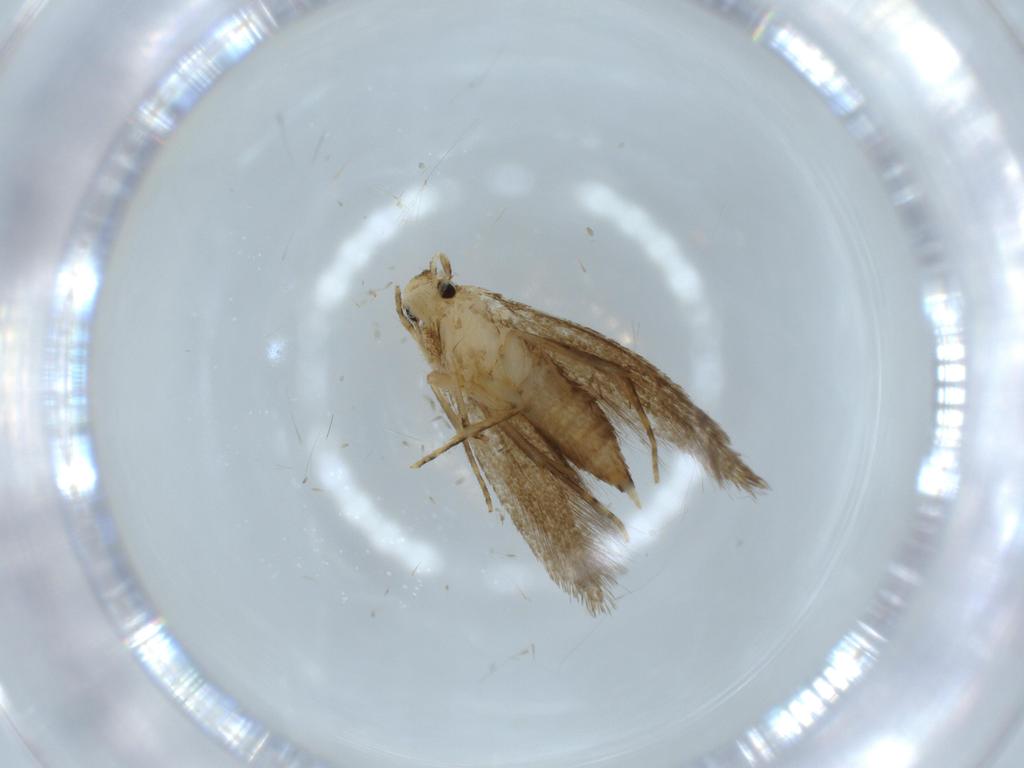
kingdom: Animalia
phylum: Arthropoda
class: Insecta
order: Lepidoptera
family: Tineidae
